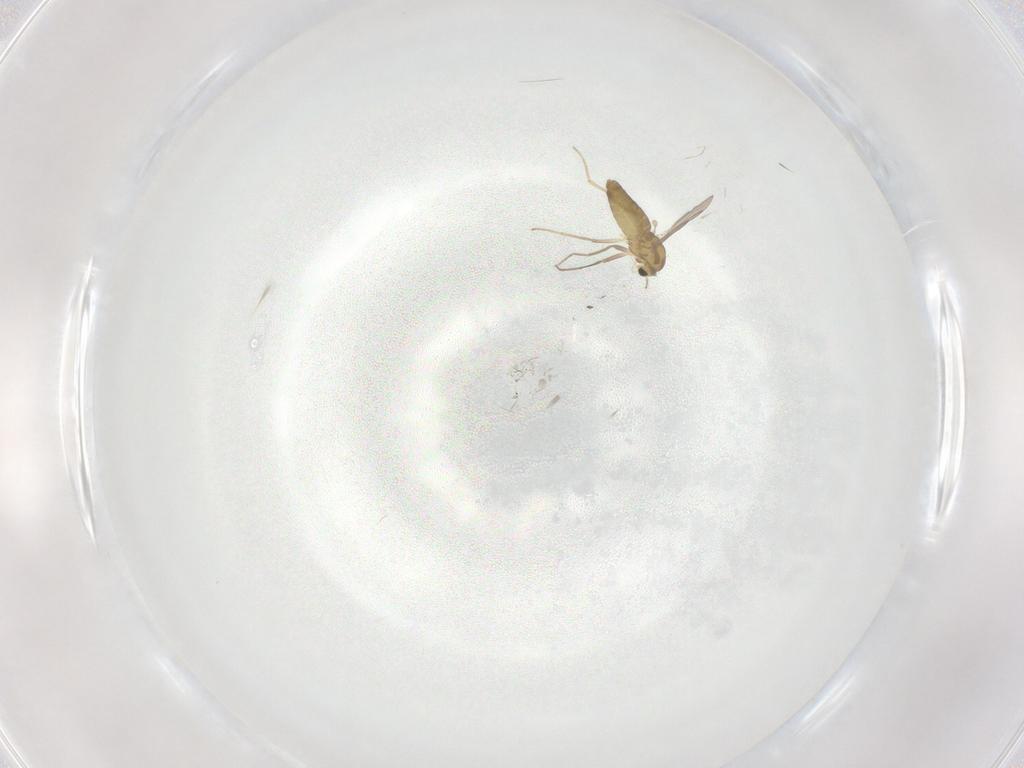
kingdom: Animalia
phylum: Arthropoda
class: Insecta
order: Diptera
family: Chironomidae
